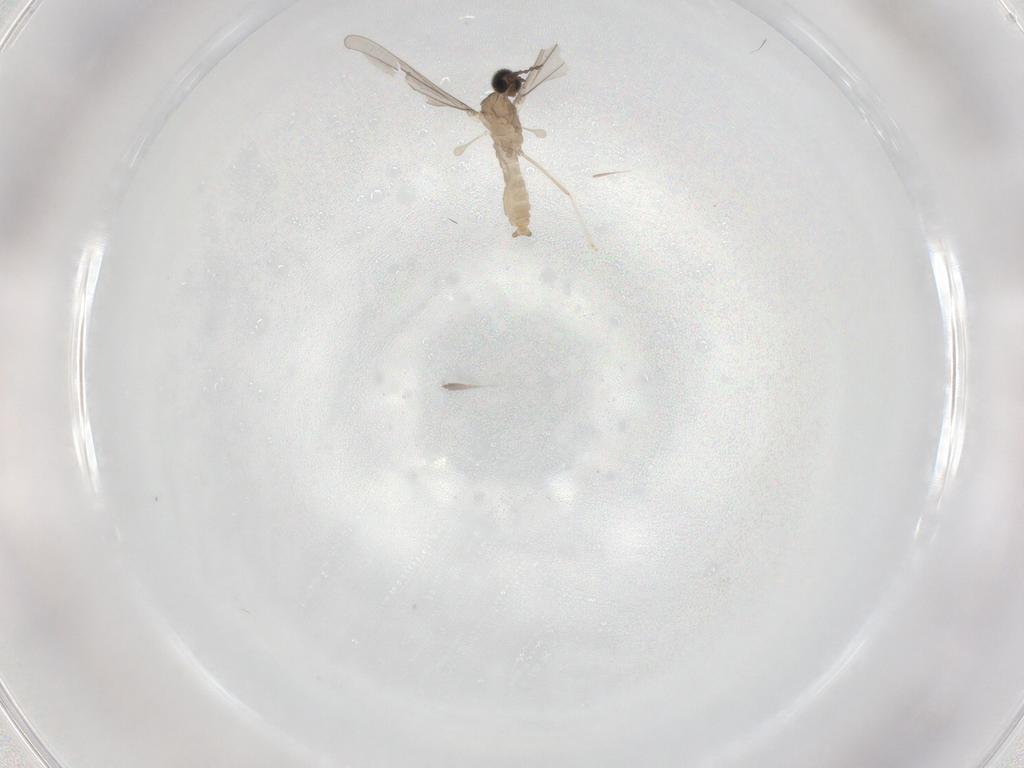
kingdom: Animalia
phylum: Arthropoda
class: Insecta
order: Diptera
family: Cecidomyiidae
